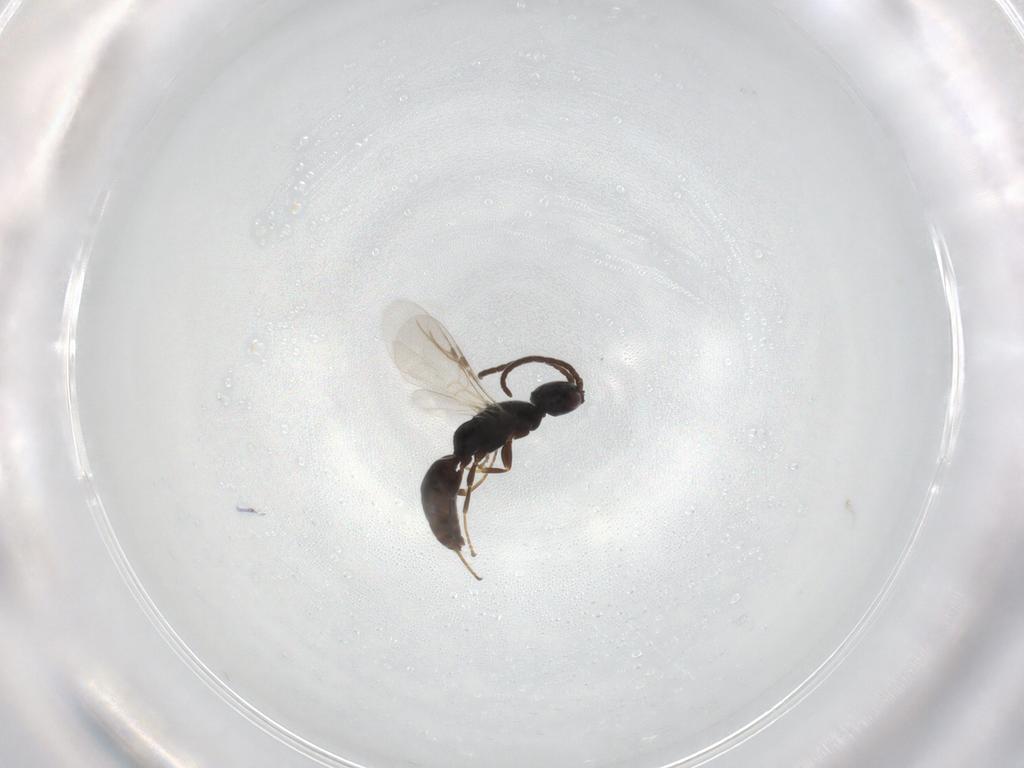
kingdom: Animalia
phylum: Arthropoda
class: Insecta
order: Hymenoptera
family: Bethylidae
